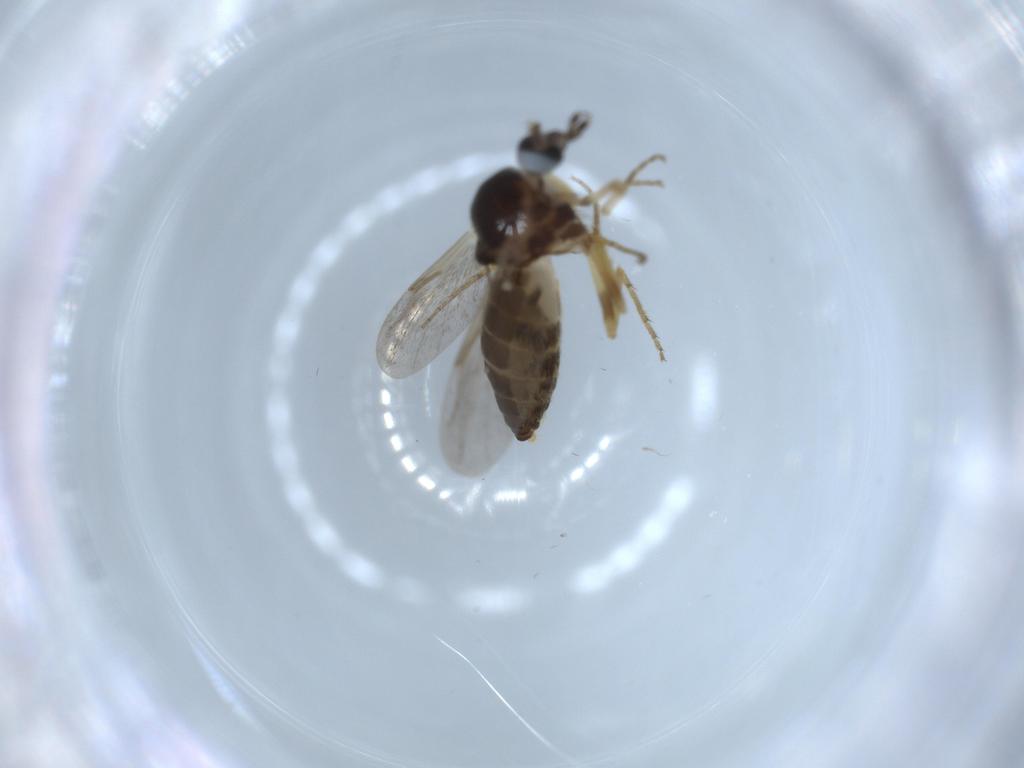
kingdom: Animalia
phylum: Arthropoda
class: Insecta
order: Diptera
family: Ceratopogonidae
